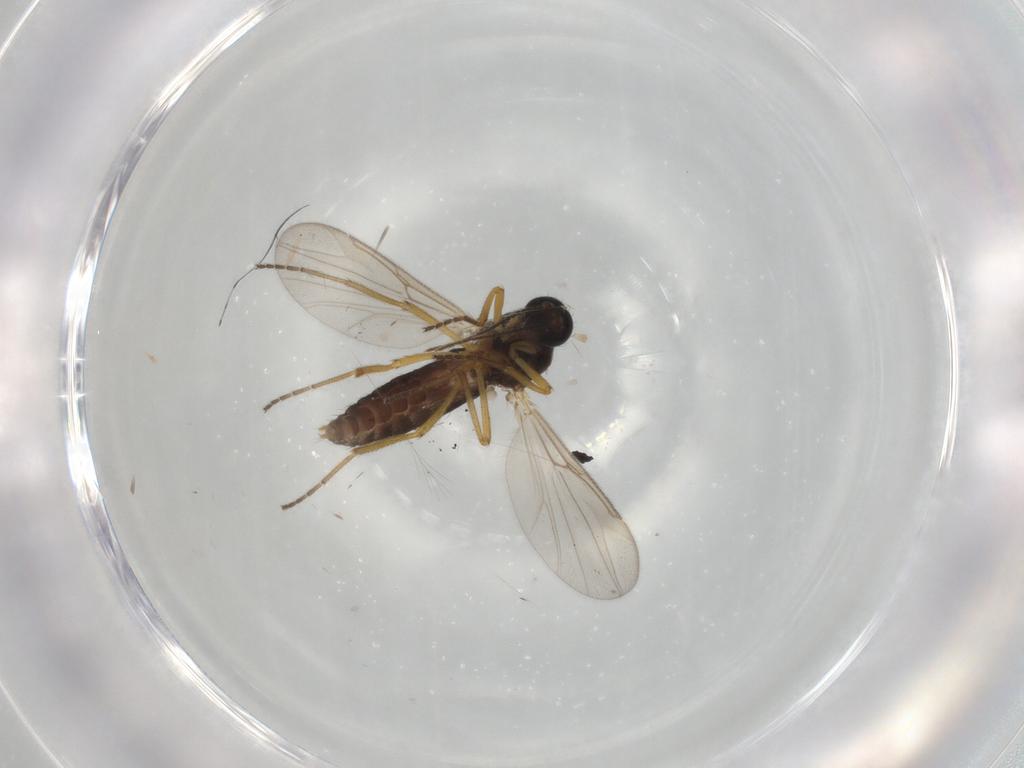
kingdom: Animalia
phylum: Arthropoda
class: Insecta
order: Diptera
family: Ceratopogonidae
